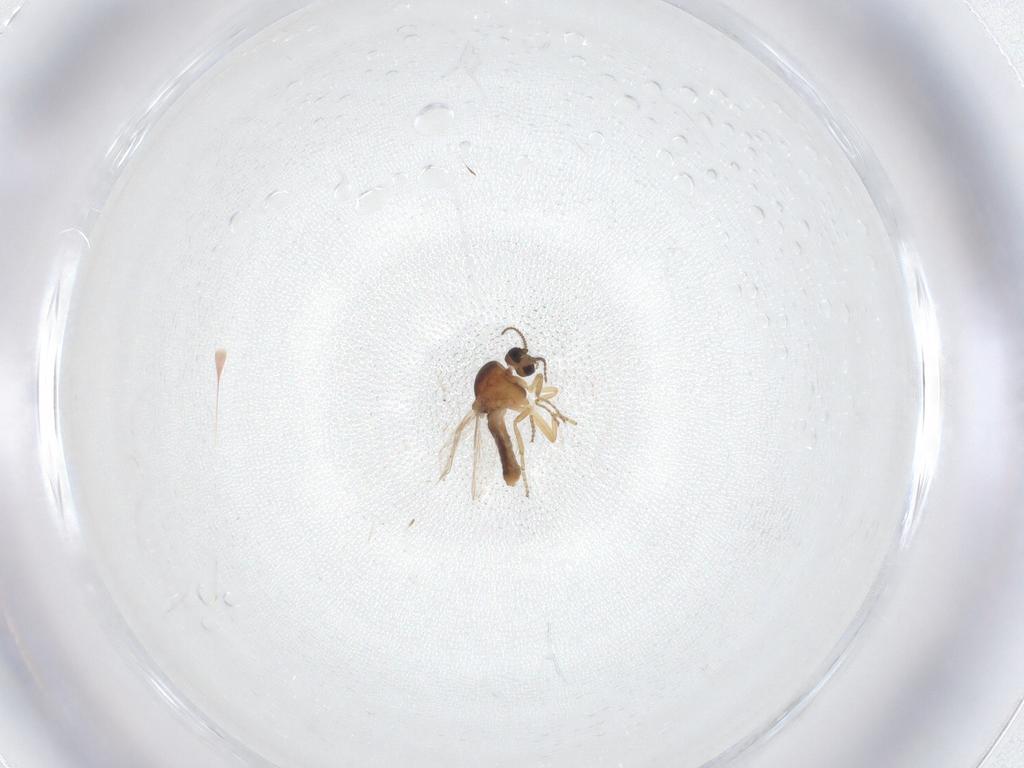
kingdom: Animalia
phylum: Arthropoda
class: Insecta
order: Diptera
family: Ceratopogonidae
